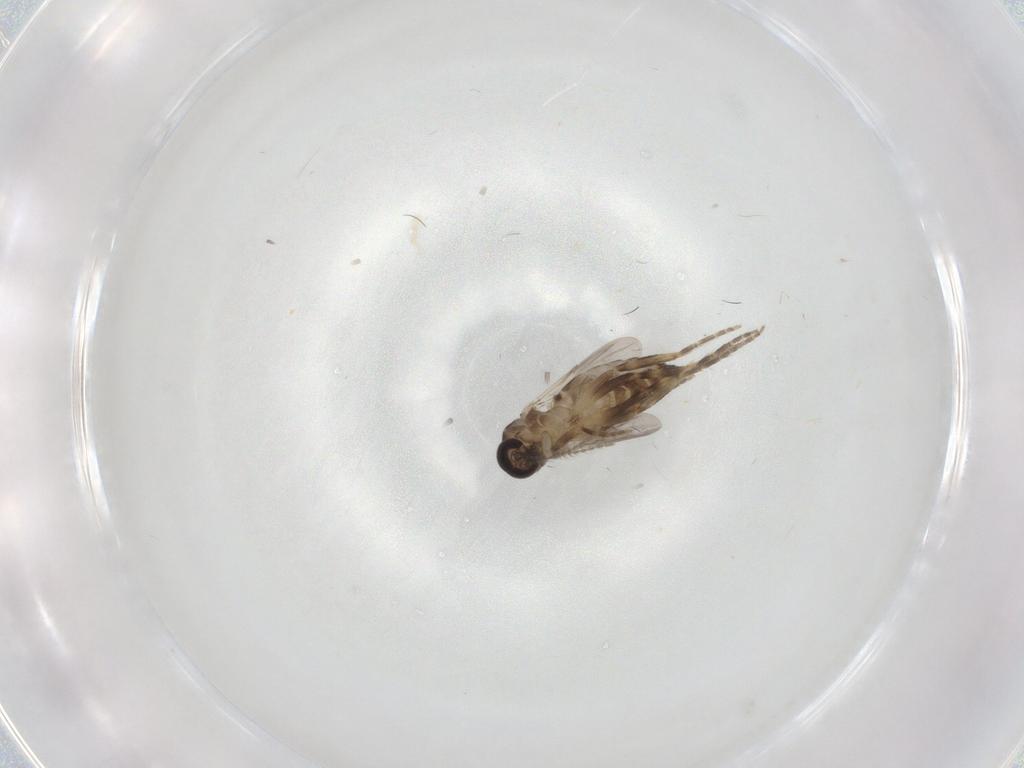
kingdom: Animalia
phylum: Arthropoda
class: Insecta
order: Diptera
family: Ceratopogonidae
